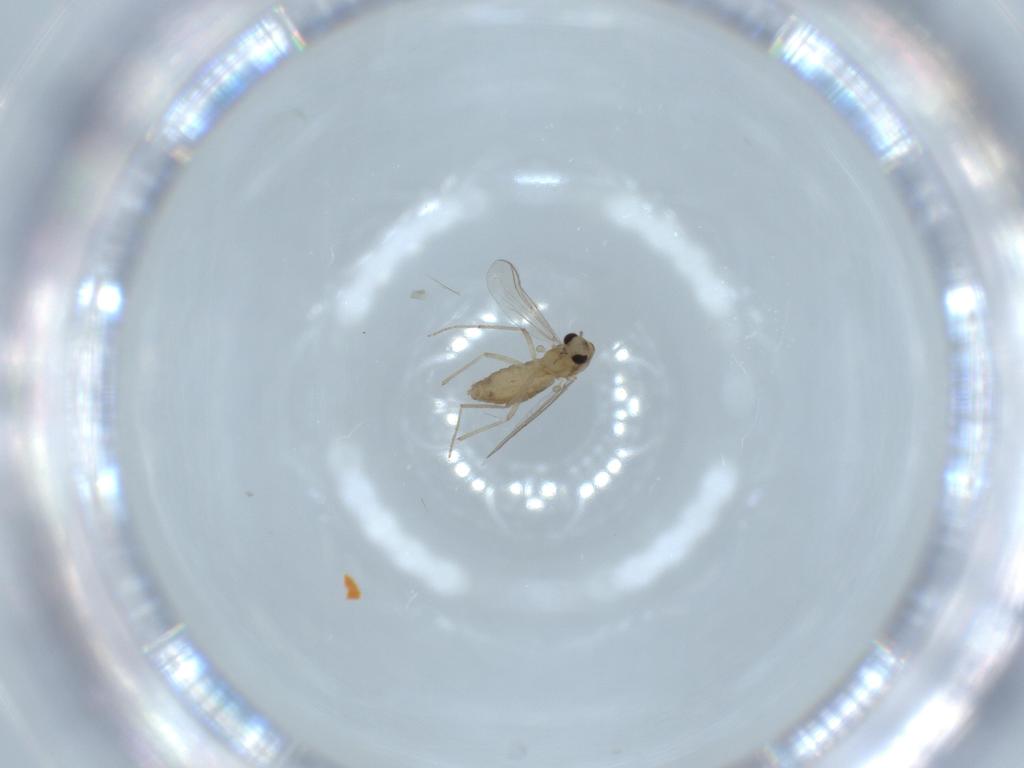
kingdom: Animalia
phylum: Arthropoda
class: Insecta
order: Diptera
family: Chironomidae
